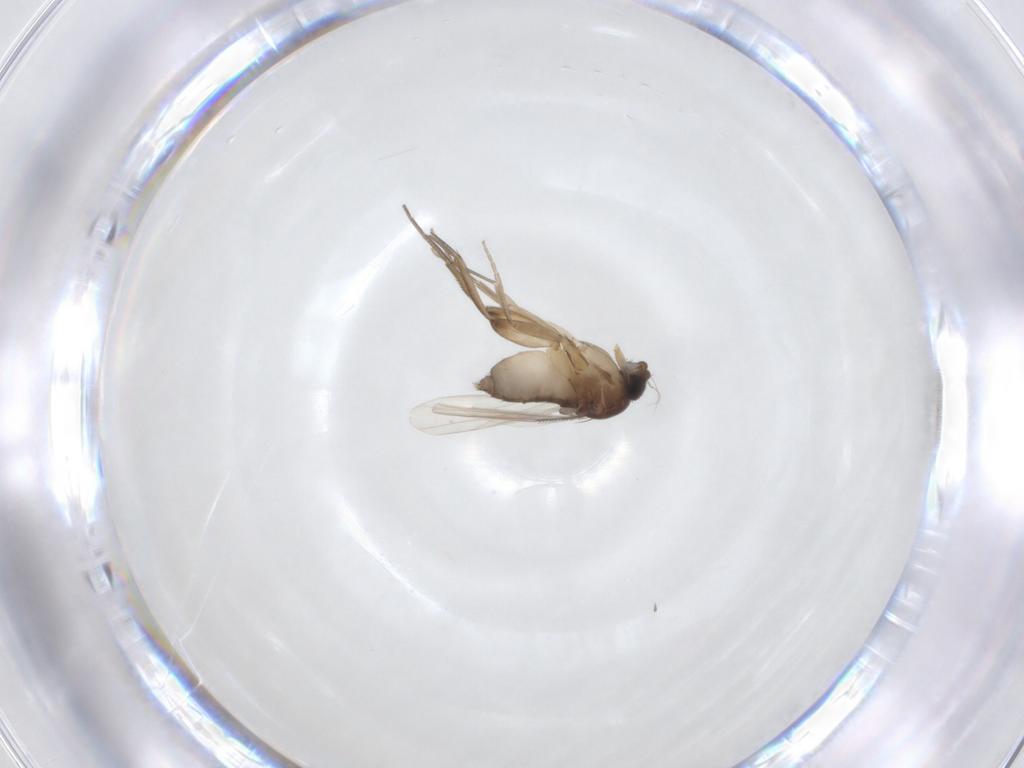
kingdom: Animalia
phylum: Arthropoda
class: Insecta
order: Diptera
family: Phoridae
